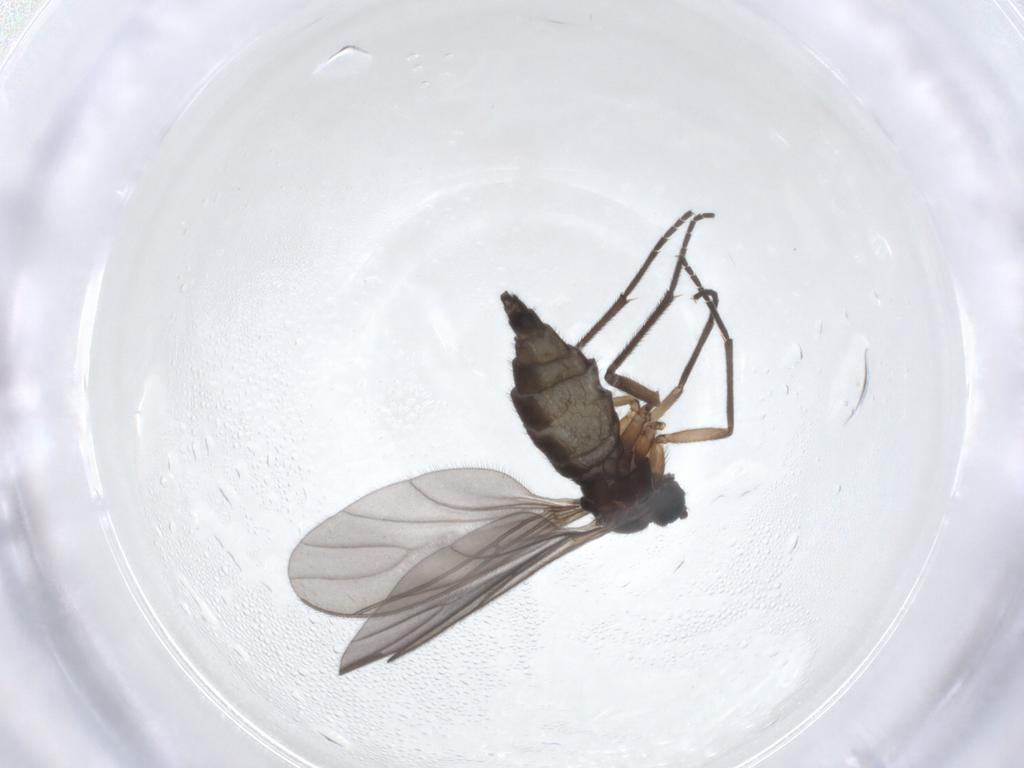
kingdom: Animalia
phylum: Arthropoda
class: Insecta
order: Diptera
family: Sciaridae
